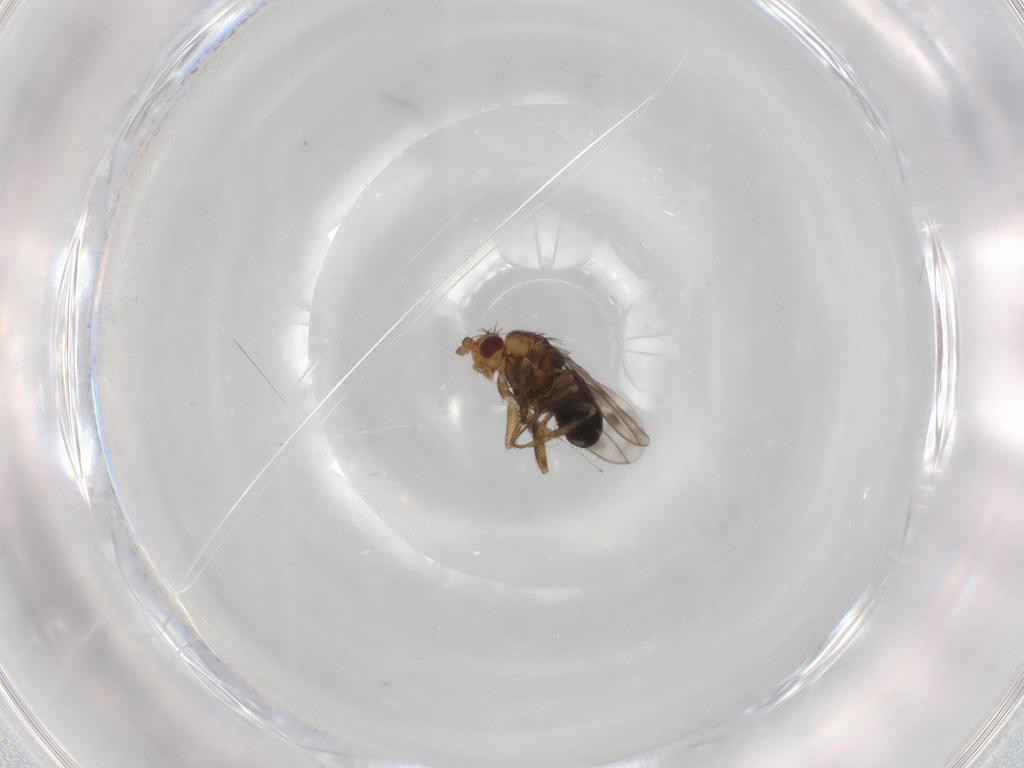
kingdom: Animalia
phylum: Arthropoda
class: Insecta
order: Diptera
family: Sphaeroceridae
